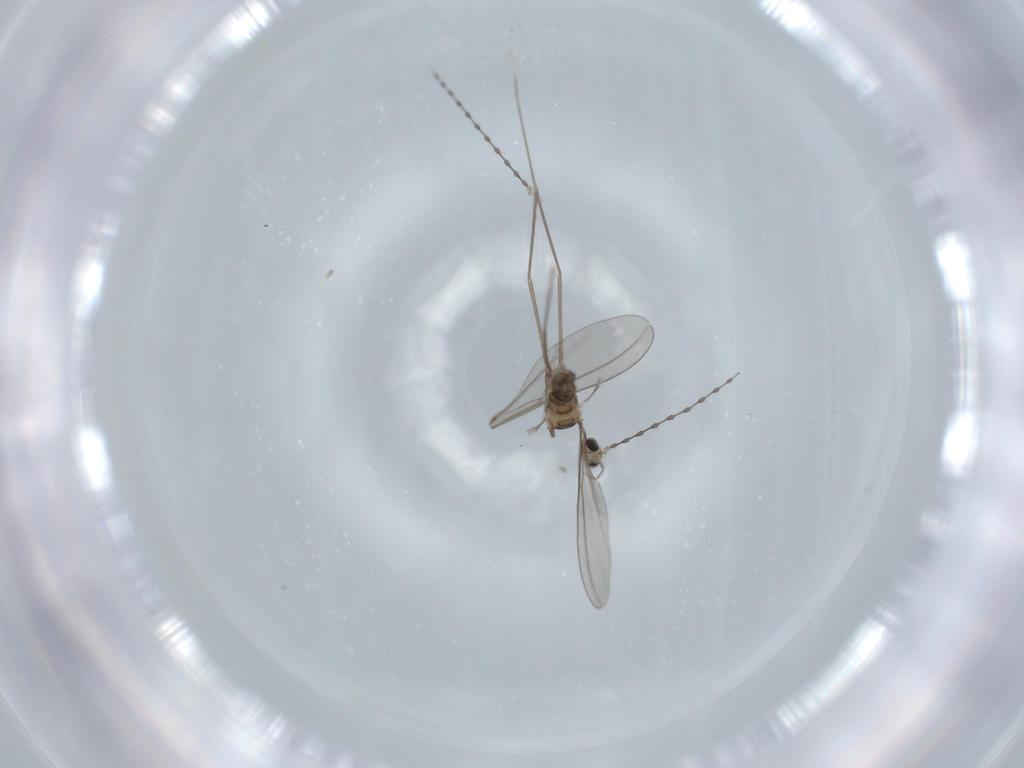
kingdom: Animalia
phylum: Arthropoda
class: Insecta
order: Diptera
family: Cecidomyiidae
